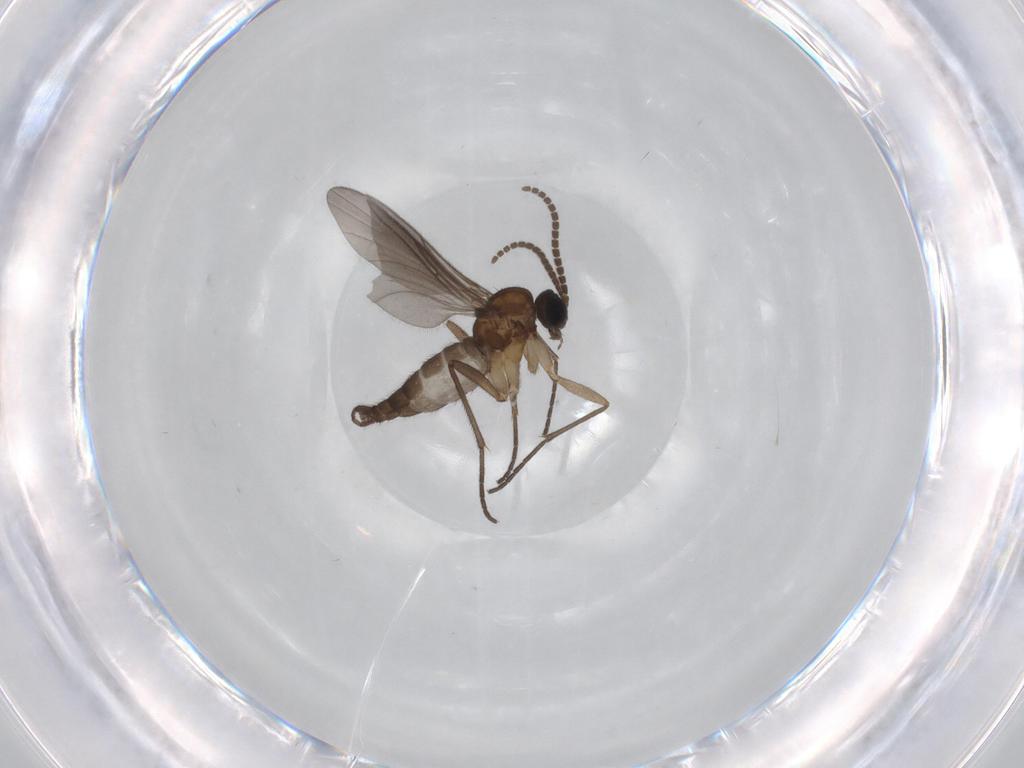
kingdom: Animalia
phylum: Arthropoda
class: Insecta
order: Diptera
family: Sciaridae
